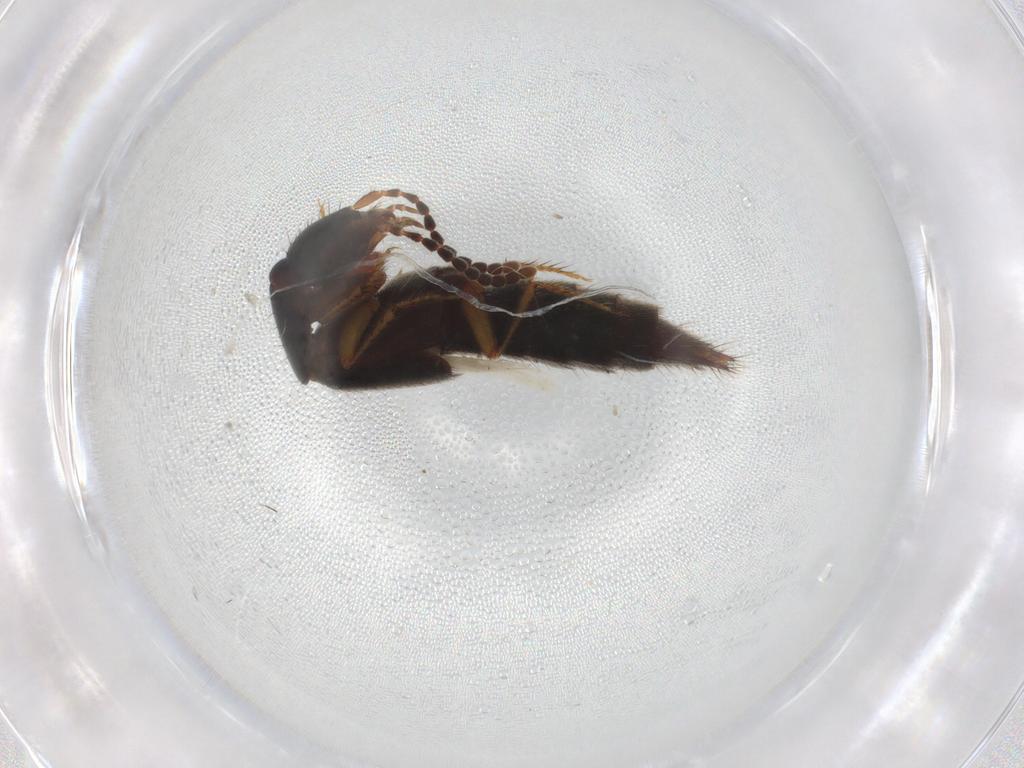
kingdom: Animalia
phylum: Arthropoda
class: Insecta
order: Coleoptera
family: Staphylinidae
